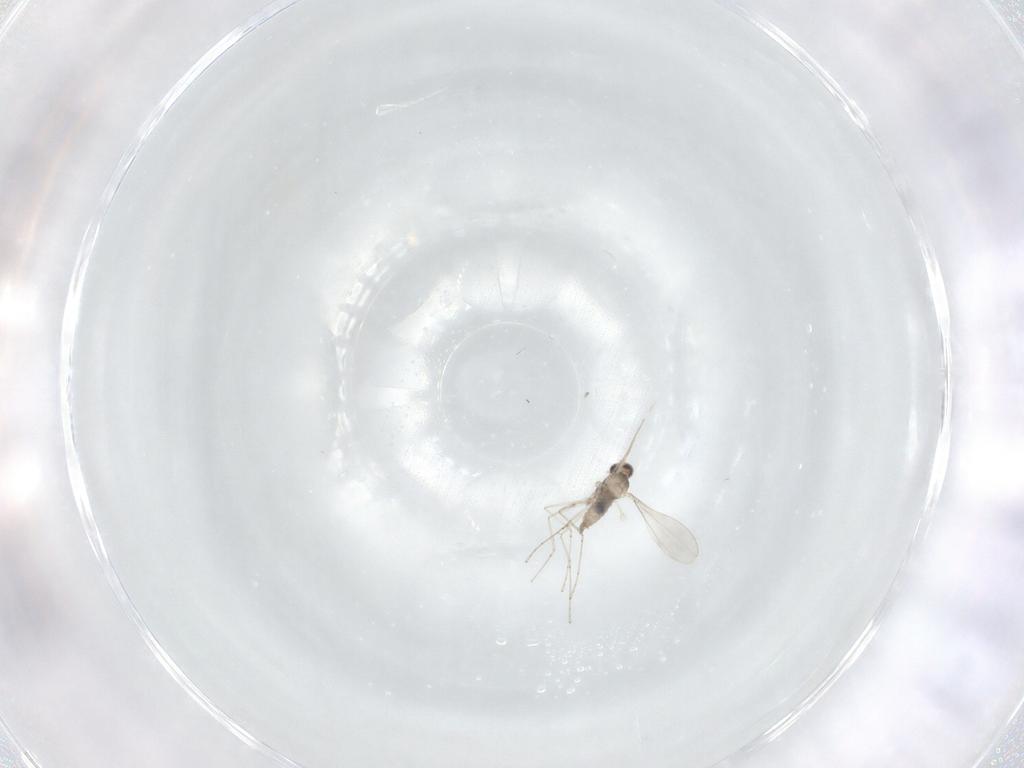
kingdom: Animalia
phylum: Arthropoda
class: Insecta
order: Diptera
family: Cecidomyiidae
